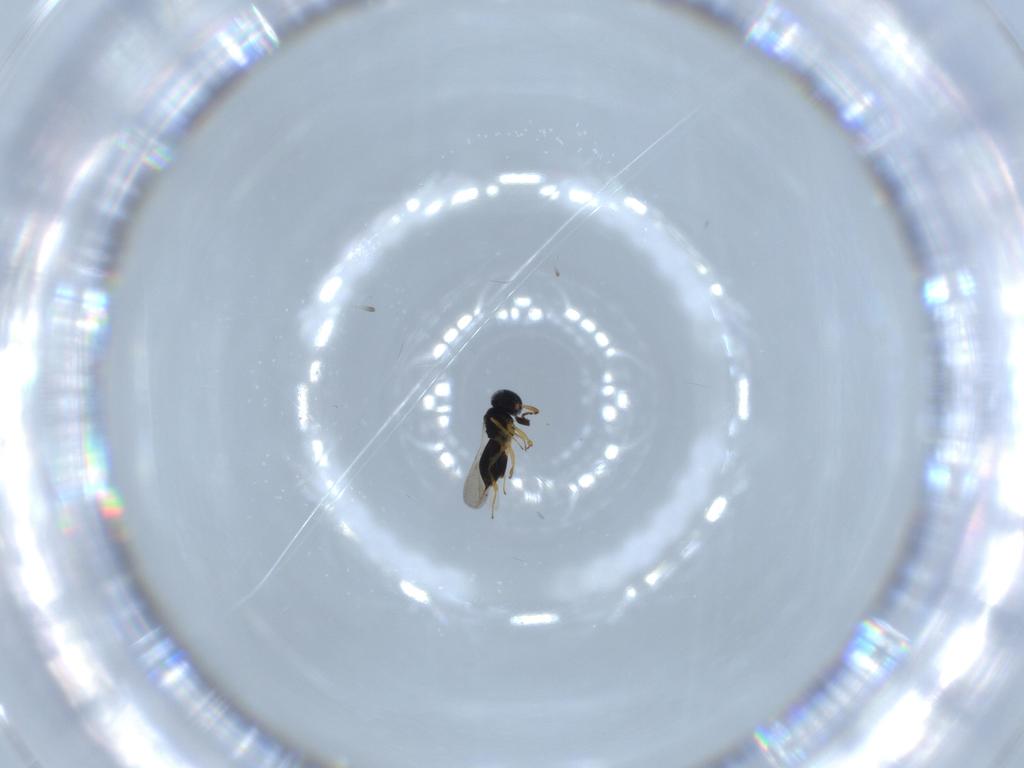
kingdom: Animalia
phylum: Arthropoda
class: Insecta
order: Hymenoptera
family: Scelionidae
